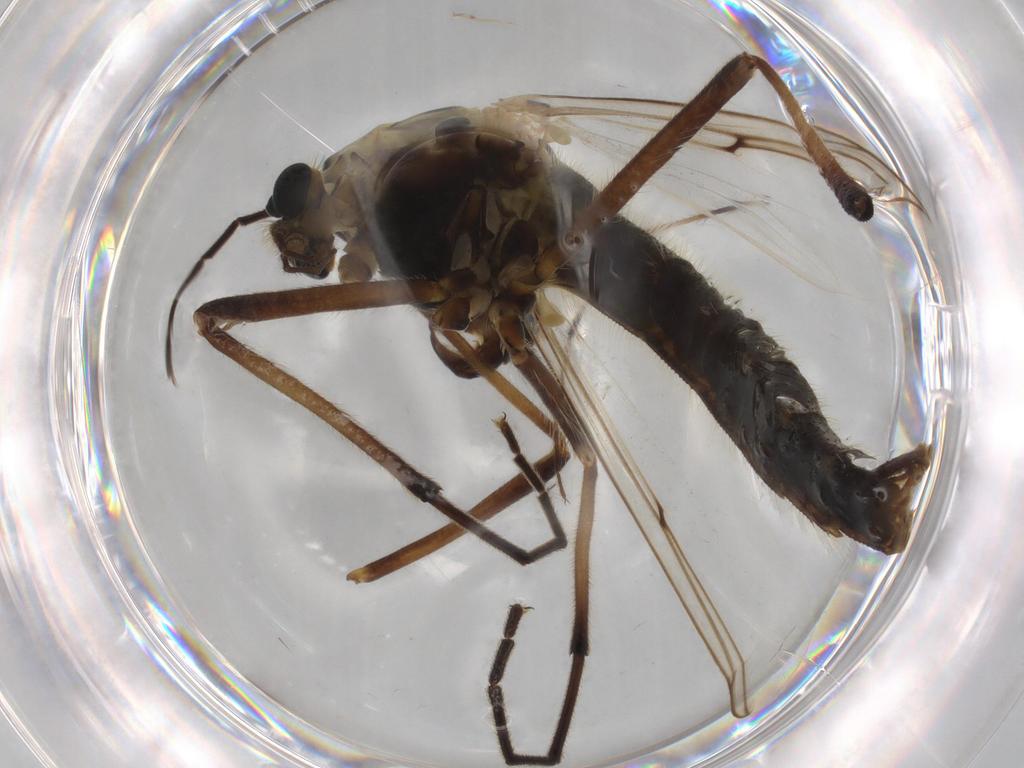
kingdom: Animalia
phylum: Arthropoda
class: Insecta
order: Diptera
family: Chironomidae
